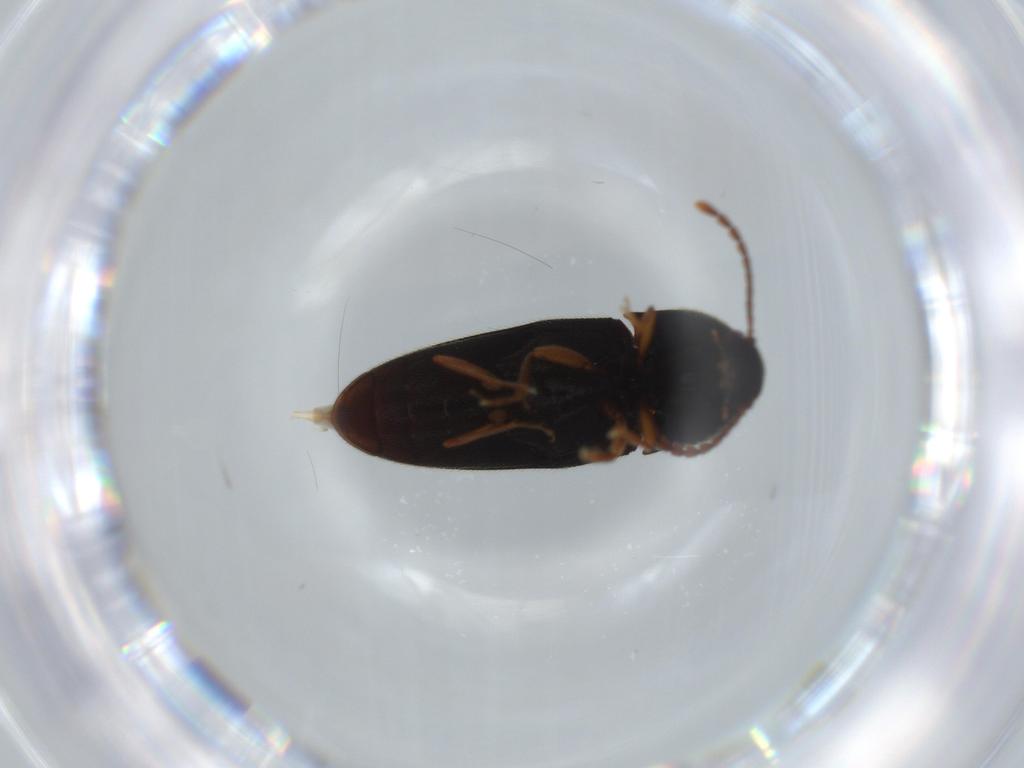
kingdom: Animalia
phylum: Arthropoda
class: Insecta
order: Coleoptera
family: Elateridae
